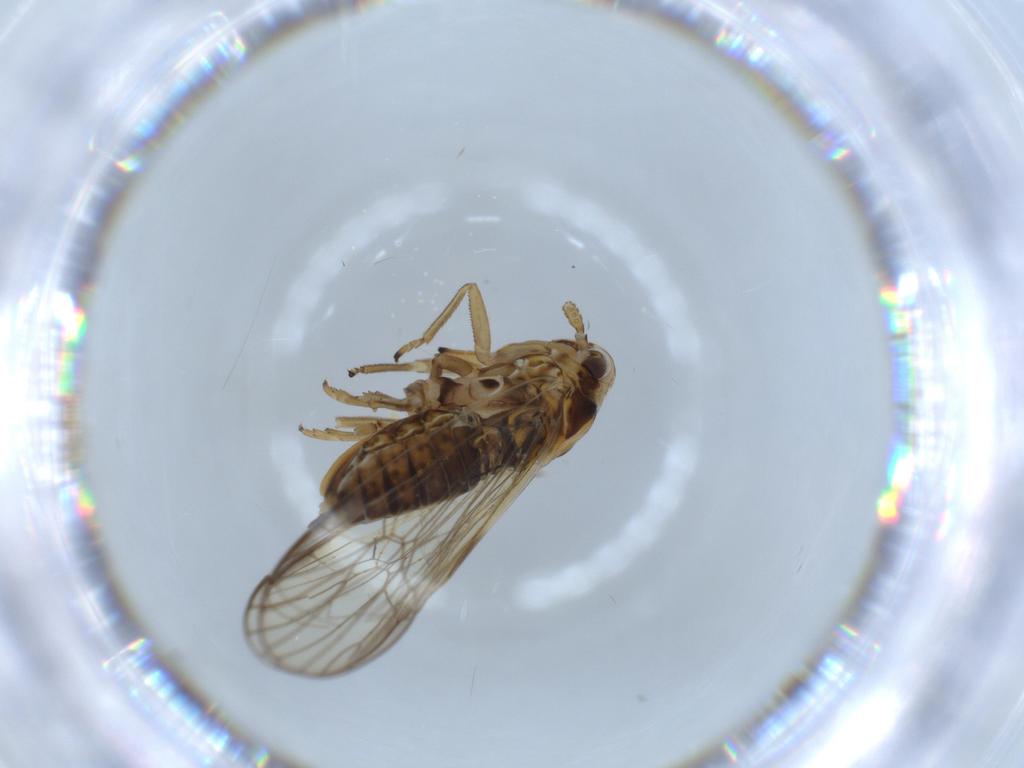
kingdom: Animalia
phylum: Arthropoda
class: Insecta
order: Hemiptera
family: Delphacidae
